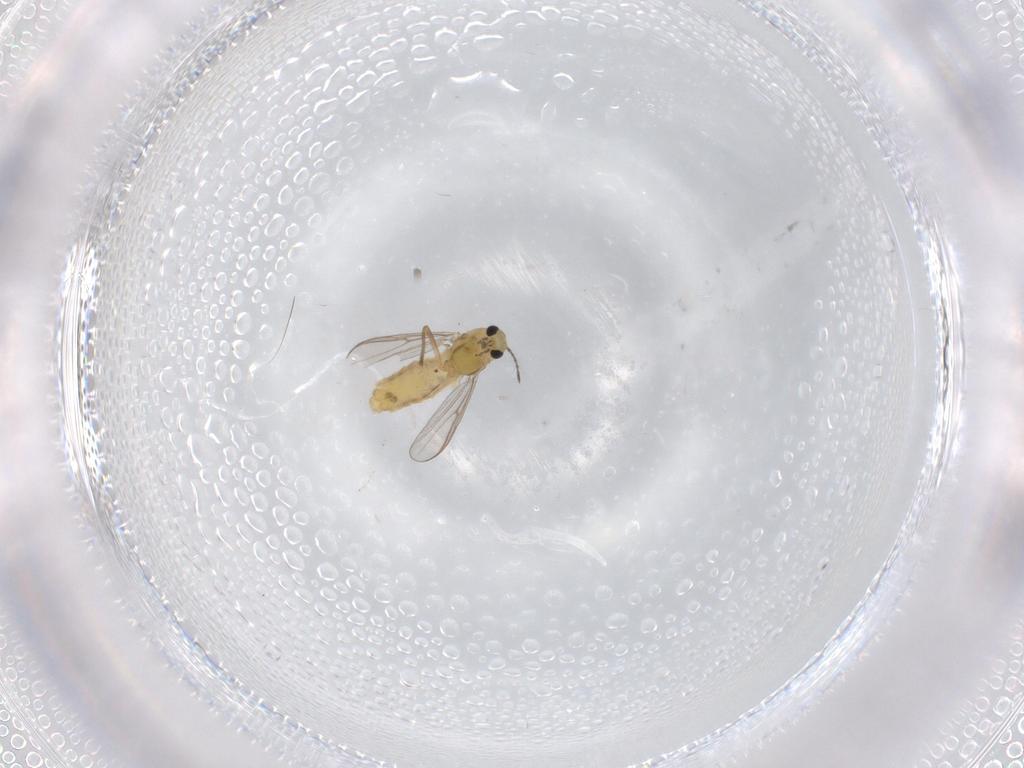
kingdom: Animalia
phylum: Arthropoda
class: Insecta
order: Diptera
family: Chironomidae
